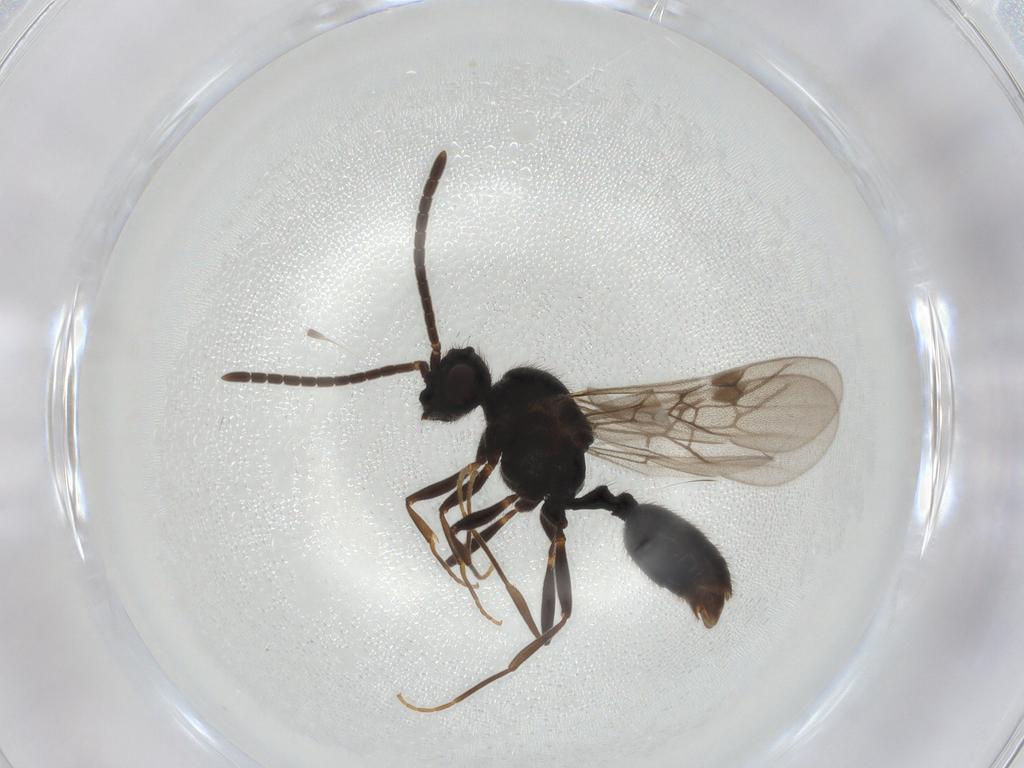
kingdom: Animalia
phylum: Arthropoda
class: Insecta
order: Hymenoptera
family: Formicidae
